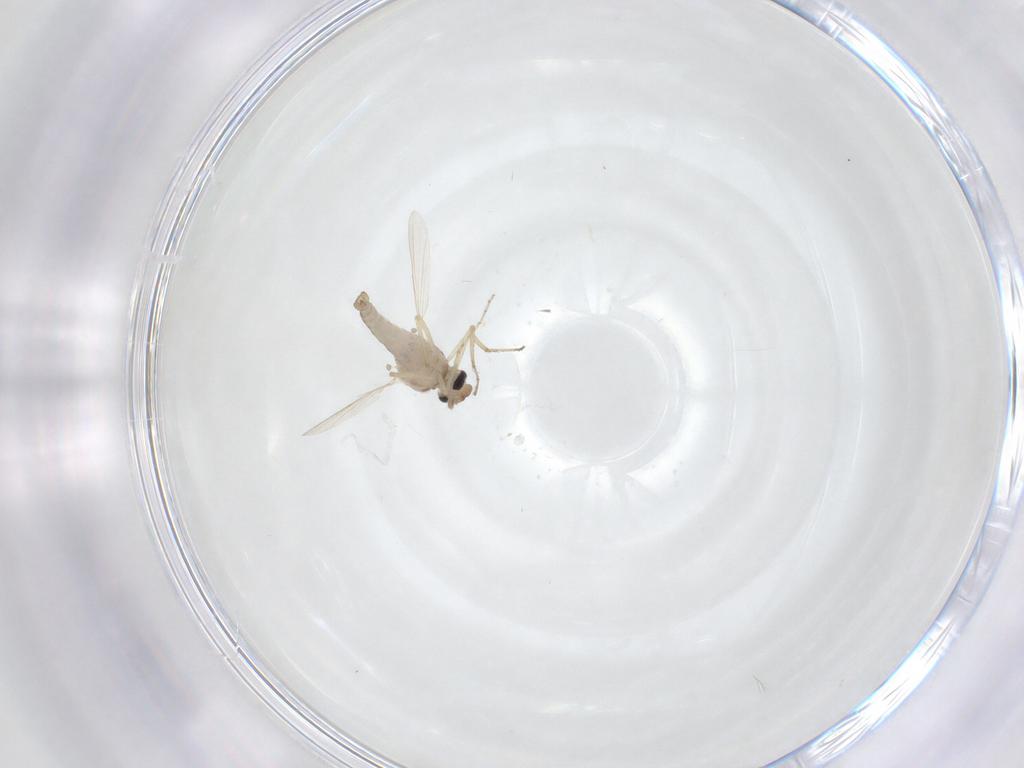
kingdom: Animalia
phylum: Arthropoda
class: Insecta
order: Diptera
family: Ceratopogonidae
